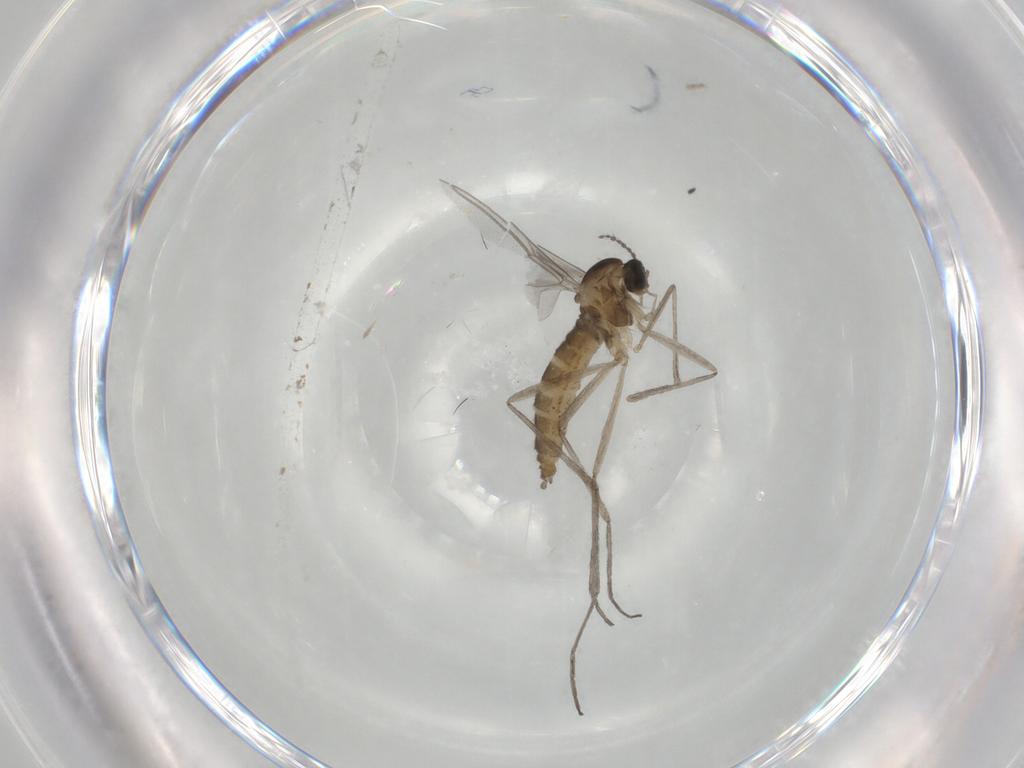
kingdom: Animalia
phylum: Arthropoda
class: Insecta
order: Diptera
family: Cecidomyiidae
